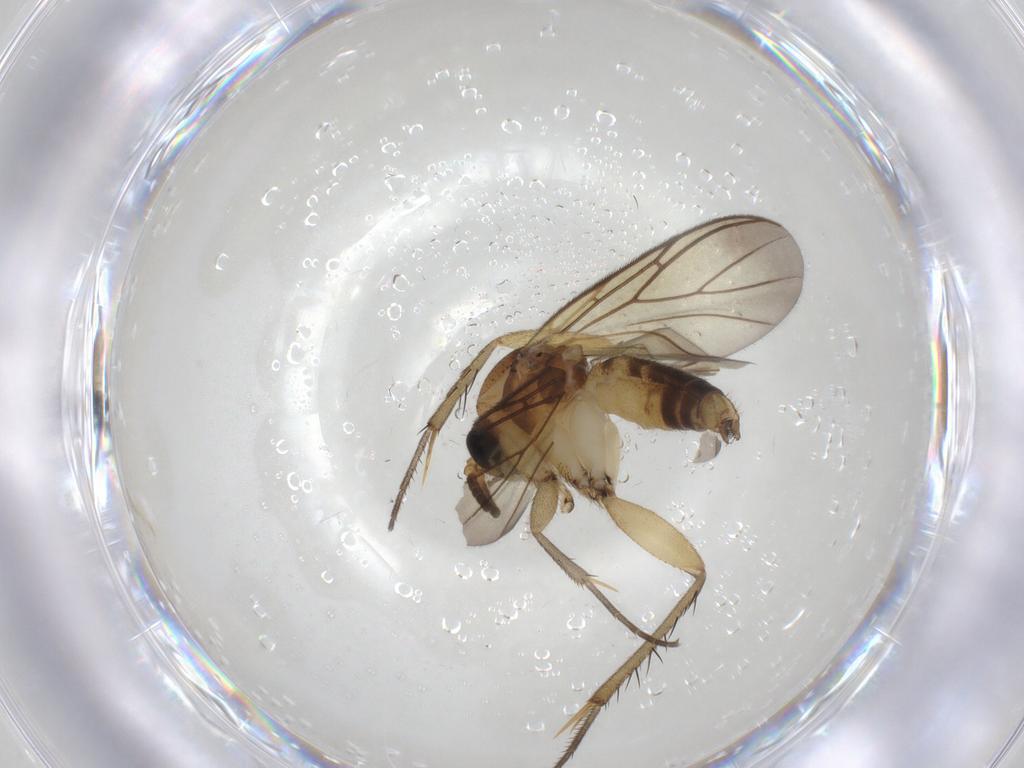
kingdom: Animalia
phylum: Arthropoda
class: Insecta
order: Diptera
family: Mycetophilidae
